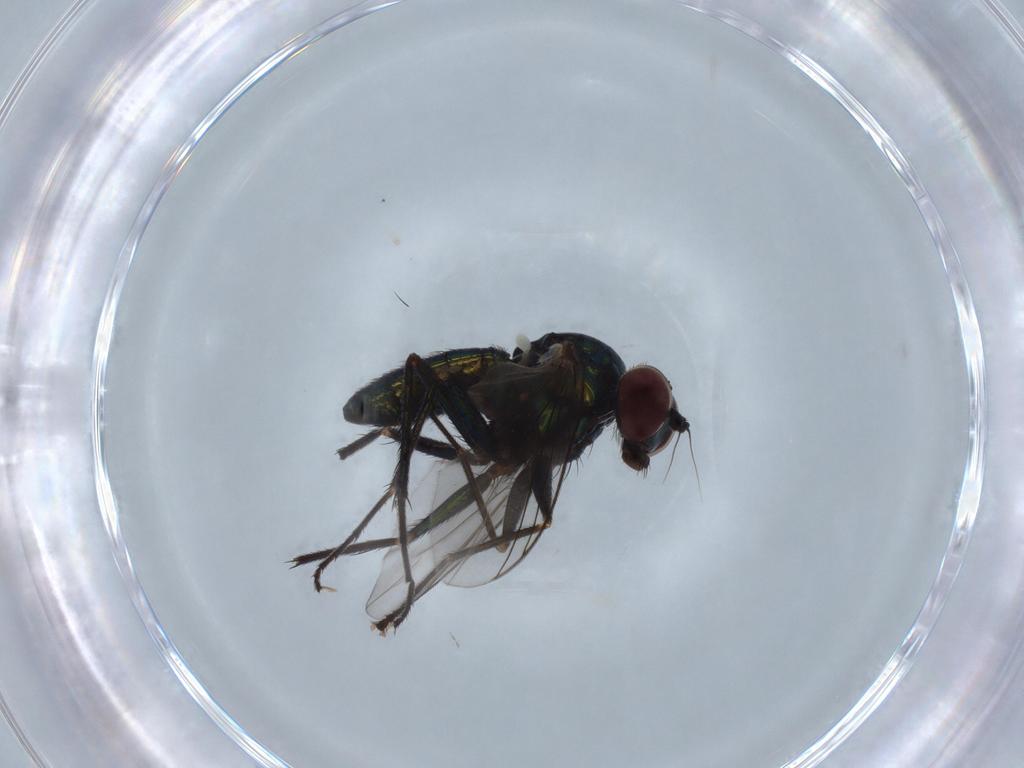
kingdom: Animalia
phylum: Arthropoda
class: Insecta
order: Diptera
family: Dolichopodidae
